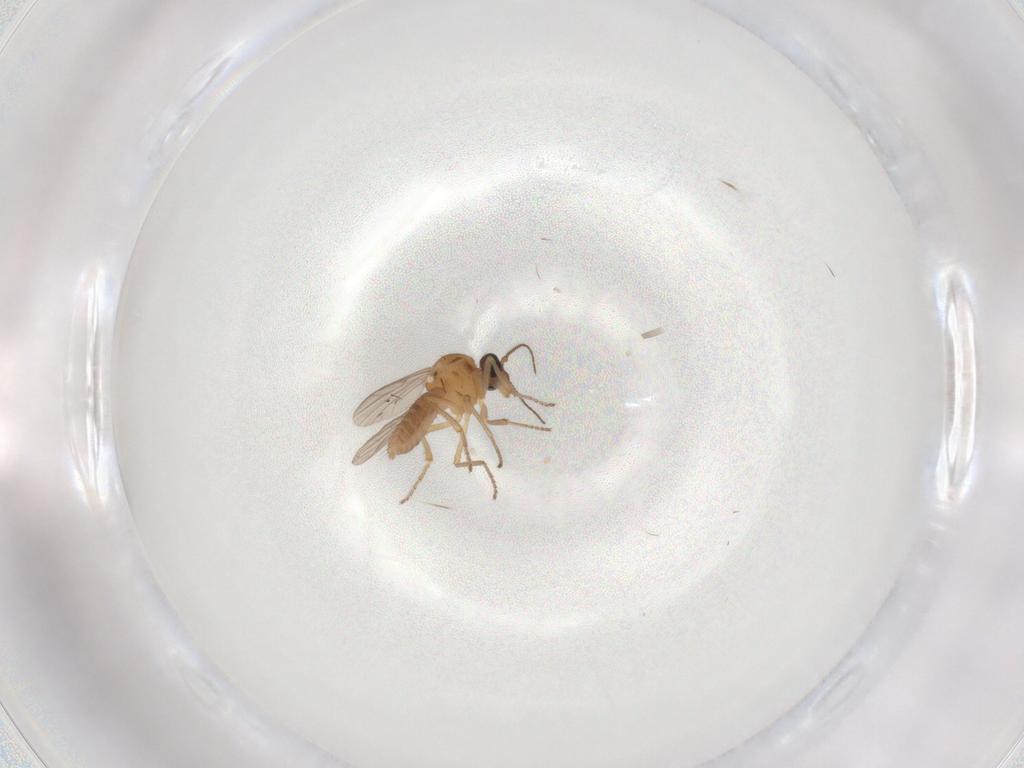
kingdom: Animalia
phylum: Arthropoda
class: Insecta
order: Diptera
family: Ceratopogonidae
